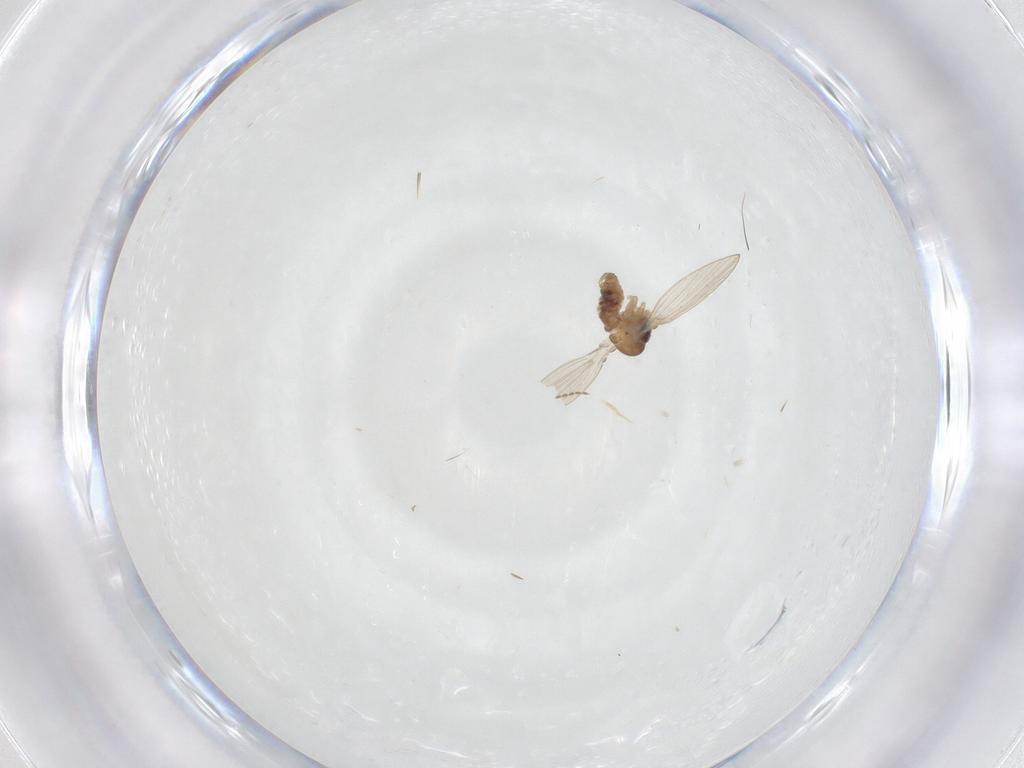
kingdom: Animalia
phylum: Arthropoda
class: Insecta
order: Diptera
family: Cecidomyiidae
